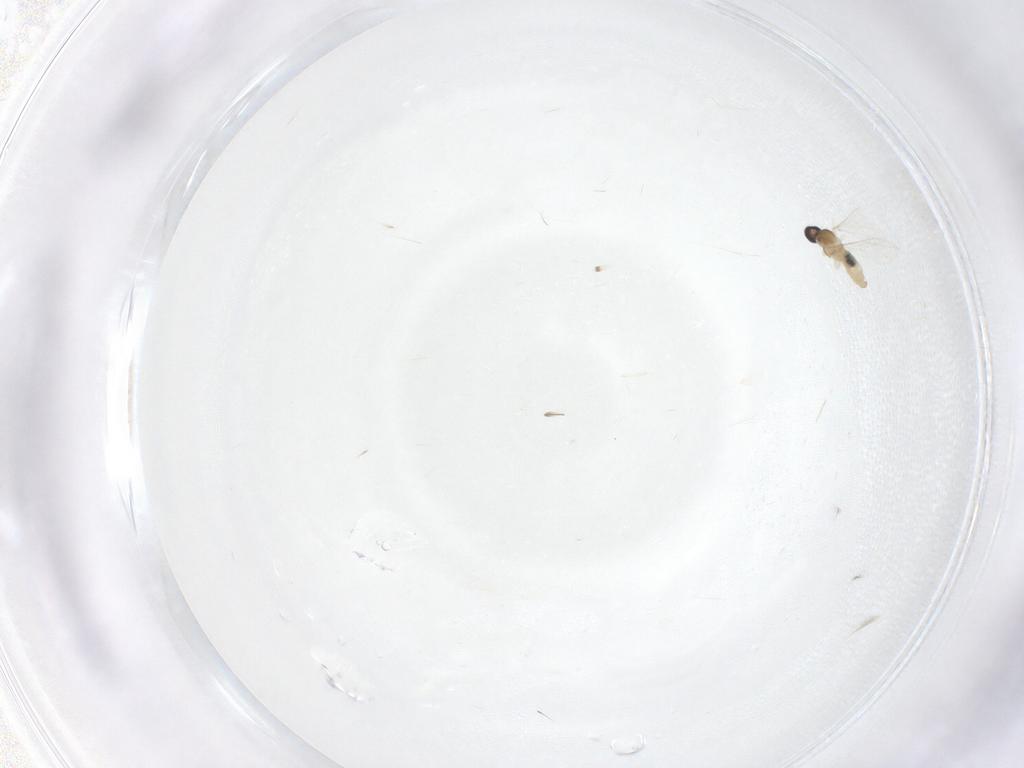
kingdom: Animalia
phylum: Arthropoda
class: Insecta
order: Diptera
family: Cecidomyiidae
